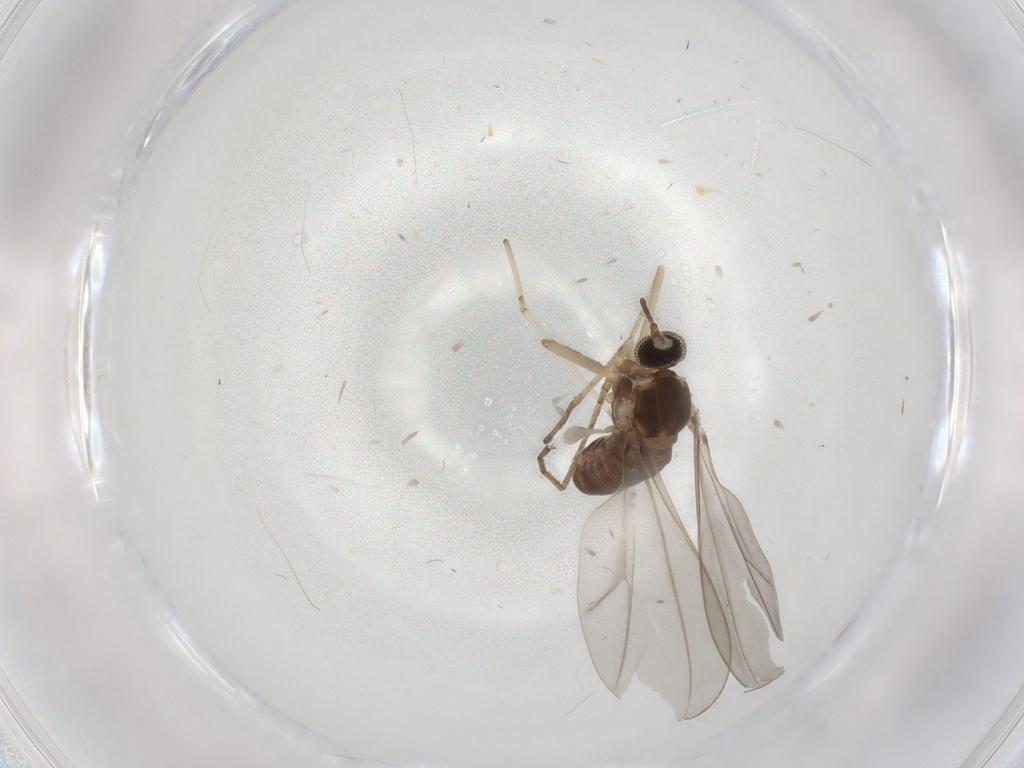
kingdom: Animalia
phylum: Arthropoda
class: Insecta
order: Diptera
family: Cecidomyiidae
